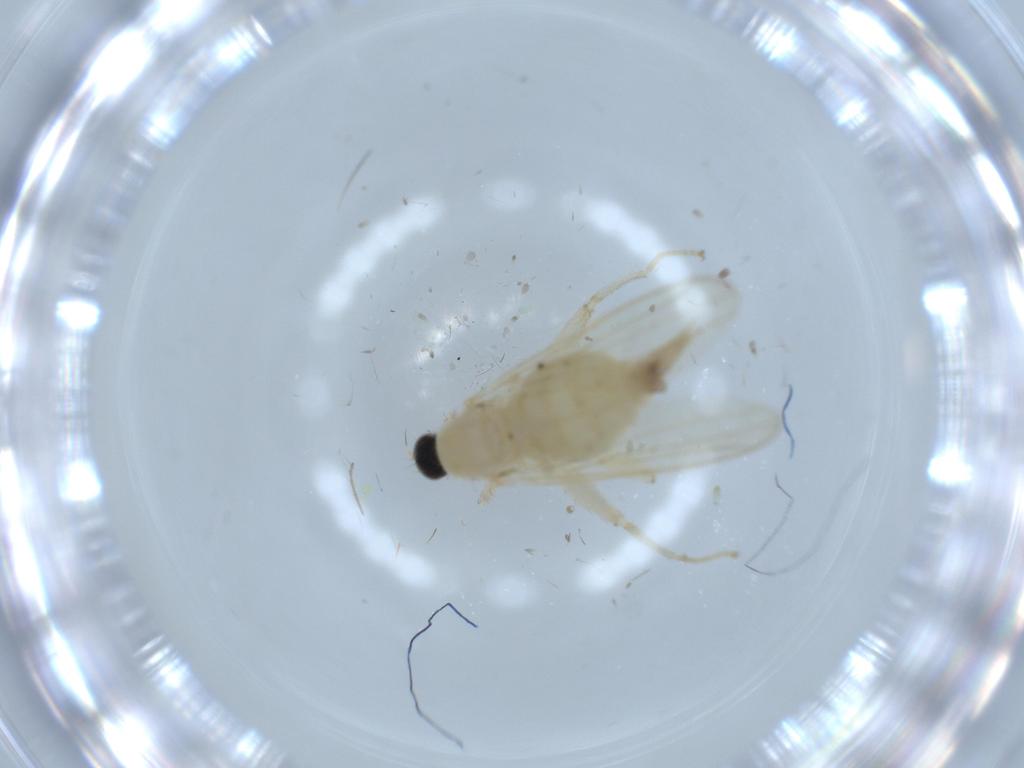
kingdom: Animalia
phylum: Arthropoda
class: Insecta
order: Diptera
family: Hybotidae
